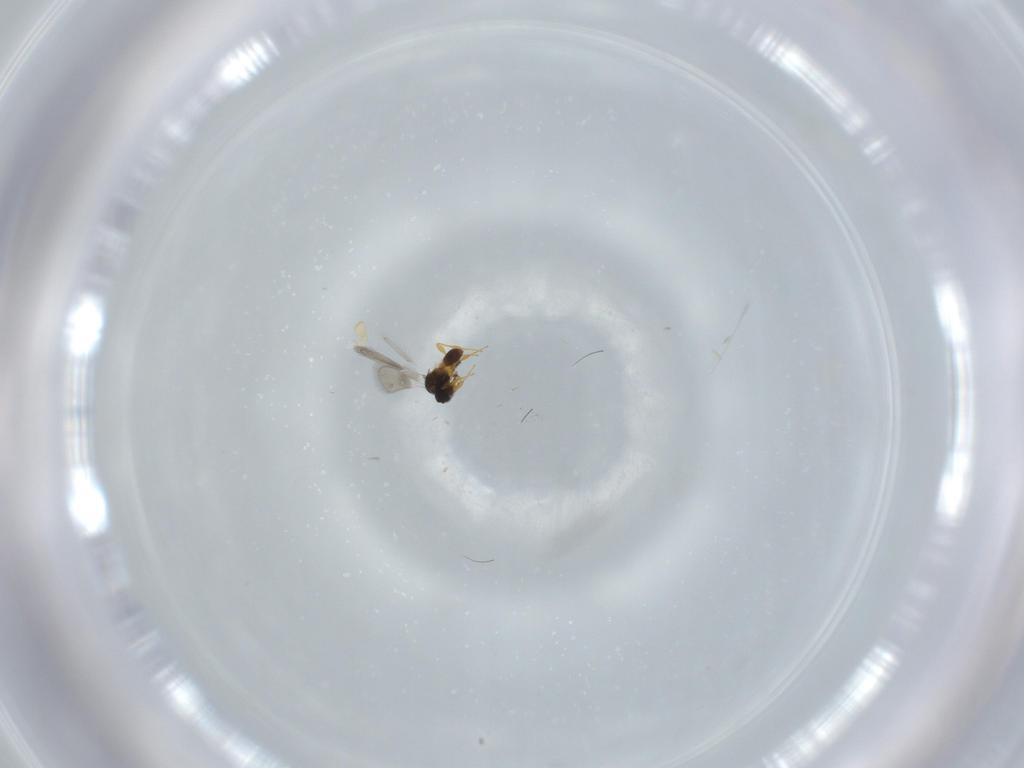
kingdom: Animalia
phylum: Arthropoda
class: Insecta
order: Hymenoptera
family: Platygastridae
